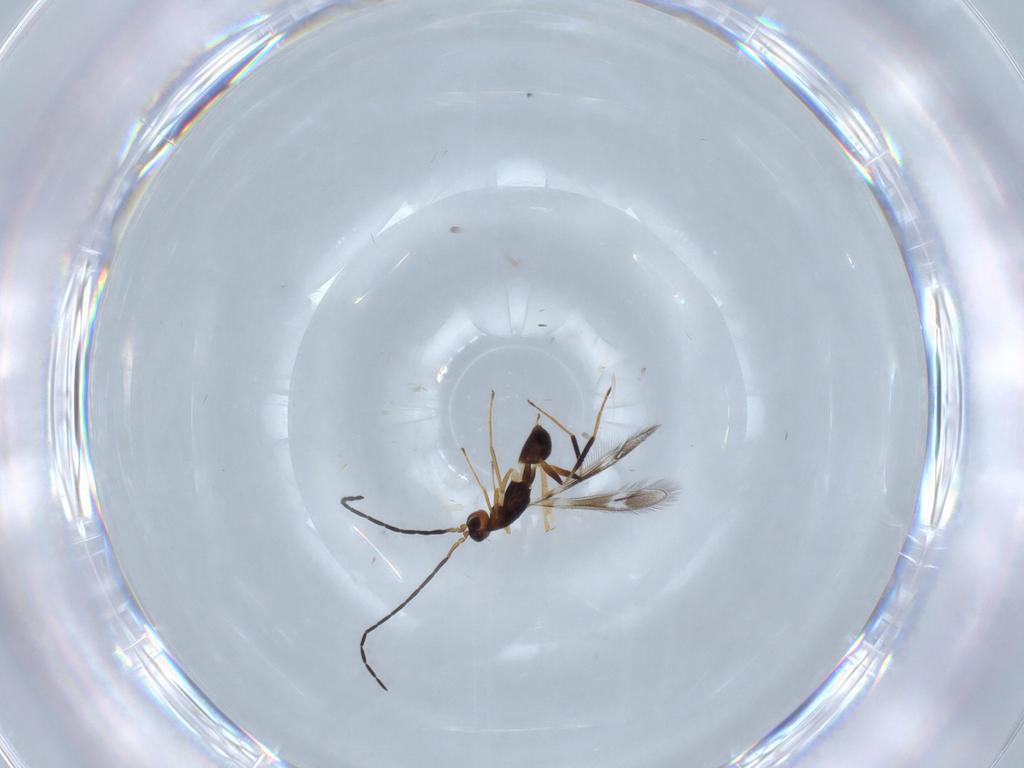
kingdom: Animalia
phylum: Arthropoda
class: Insecta
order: Hymenoptera
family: Mymaridae
